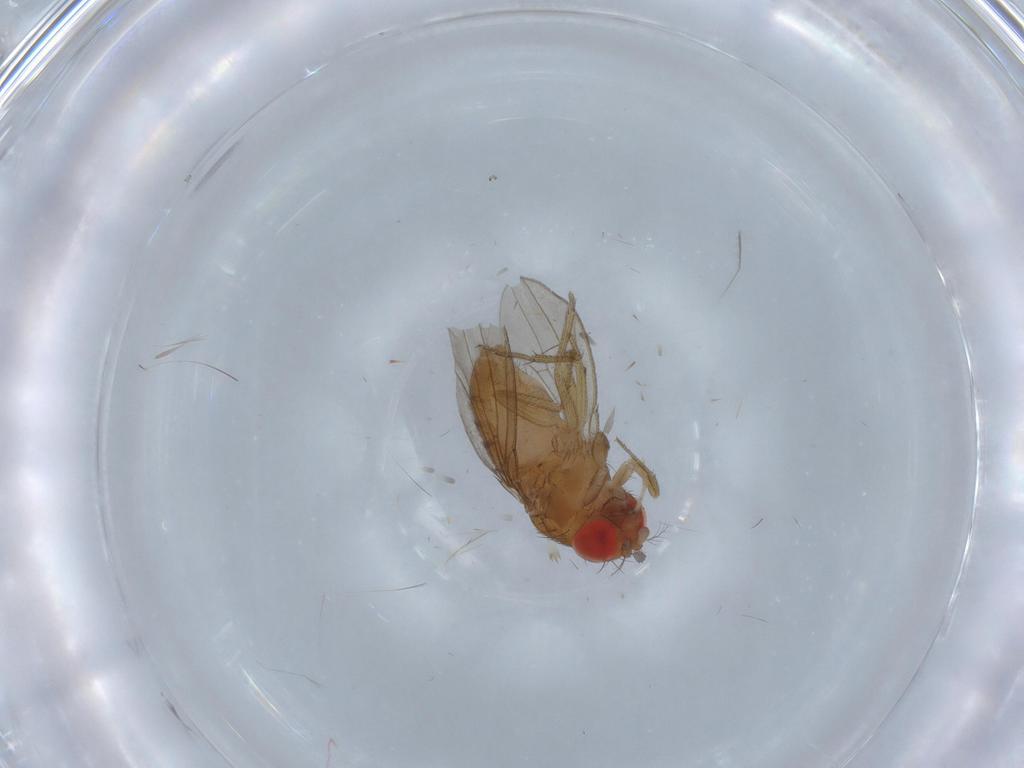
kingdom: Animalia
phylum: Arthropoda
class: Insecta
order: Diptera
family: Drosophilidae
